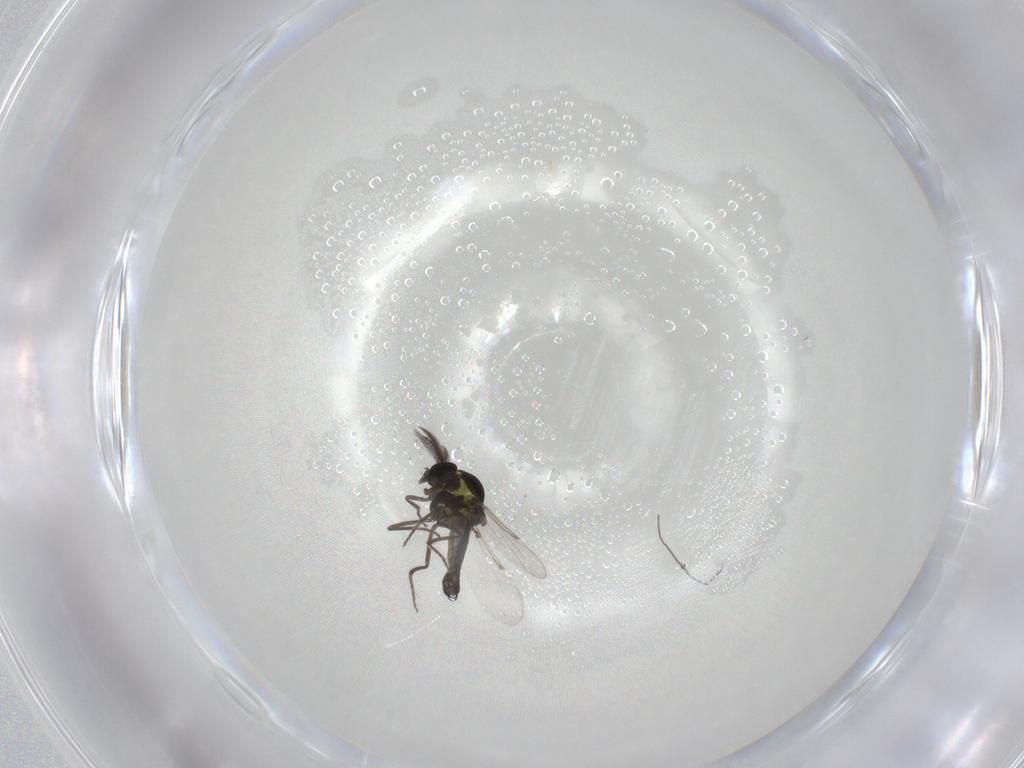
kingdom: Animalia
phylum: Arthropoda
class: Insecta
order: Diptera
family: Ceratopogonidae
